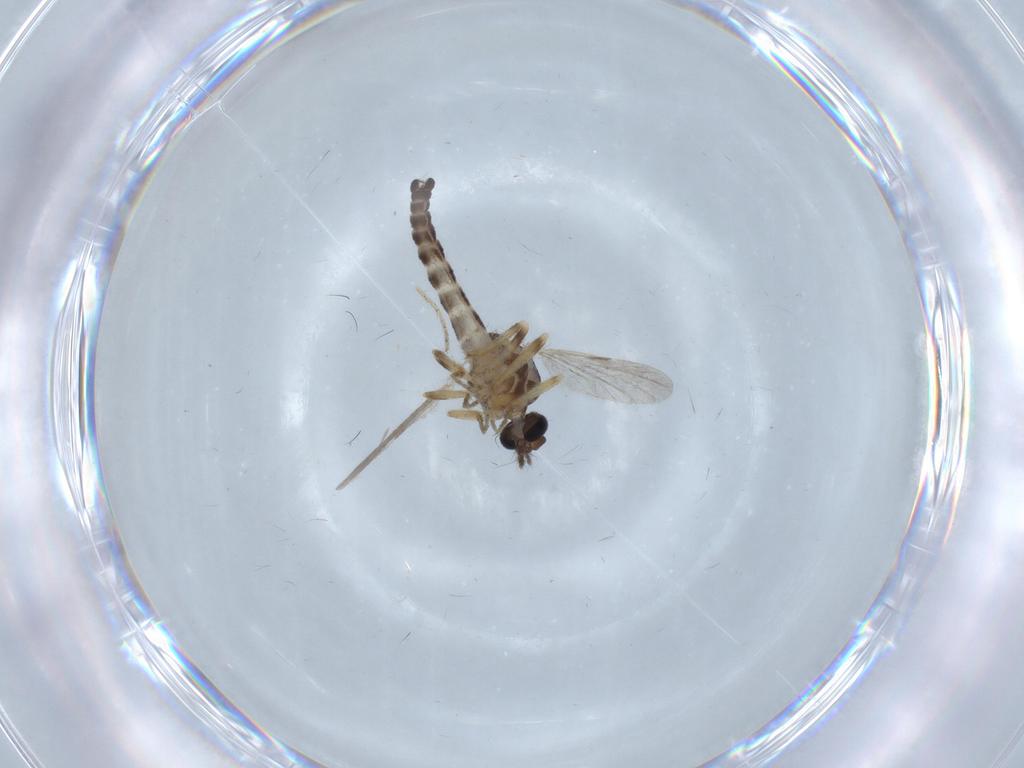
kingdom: Animalia
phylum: Arthropoda
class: Insecta
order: Diptera
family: Ceratopogonidae
